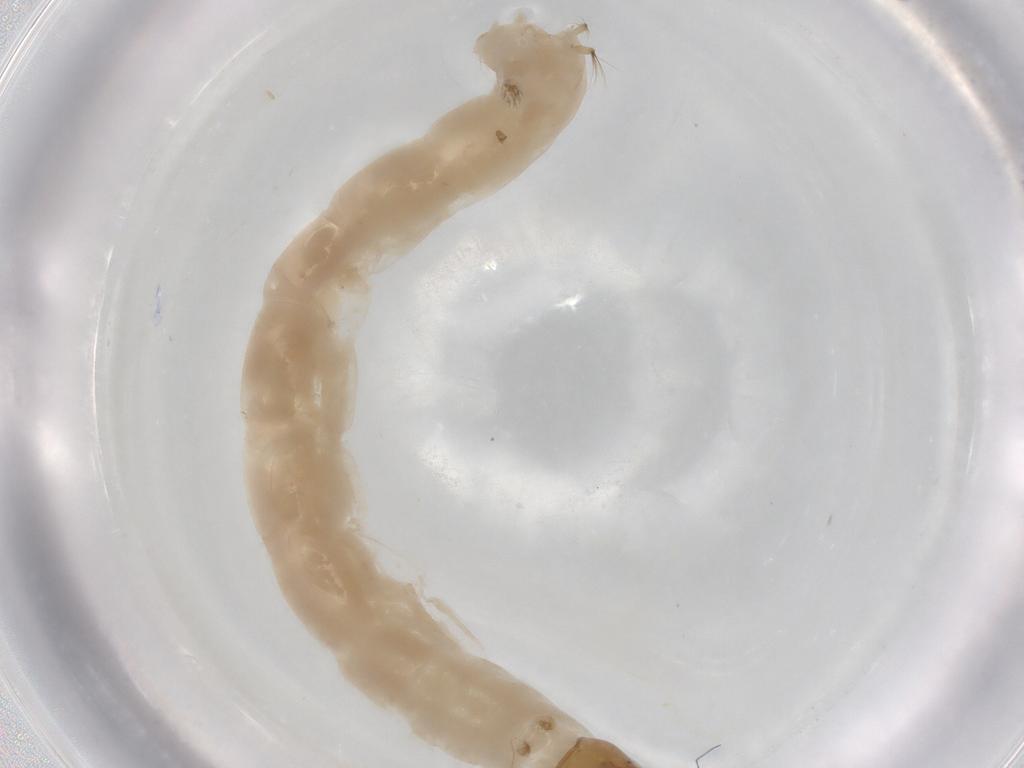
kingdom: Animalia
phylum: Arthropoda
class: Insecta
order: Diptera
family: Chironomidae
